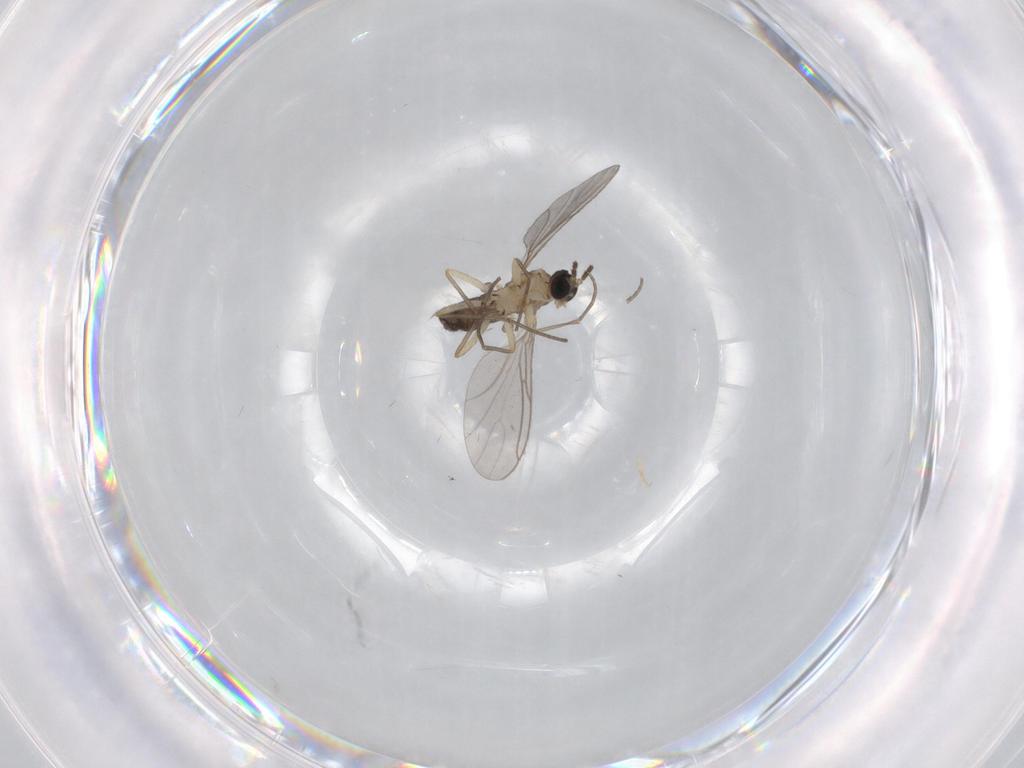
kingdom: Animalia
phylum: Arthropoda
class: Insecta
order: Diptera
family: Sciaridae
